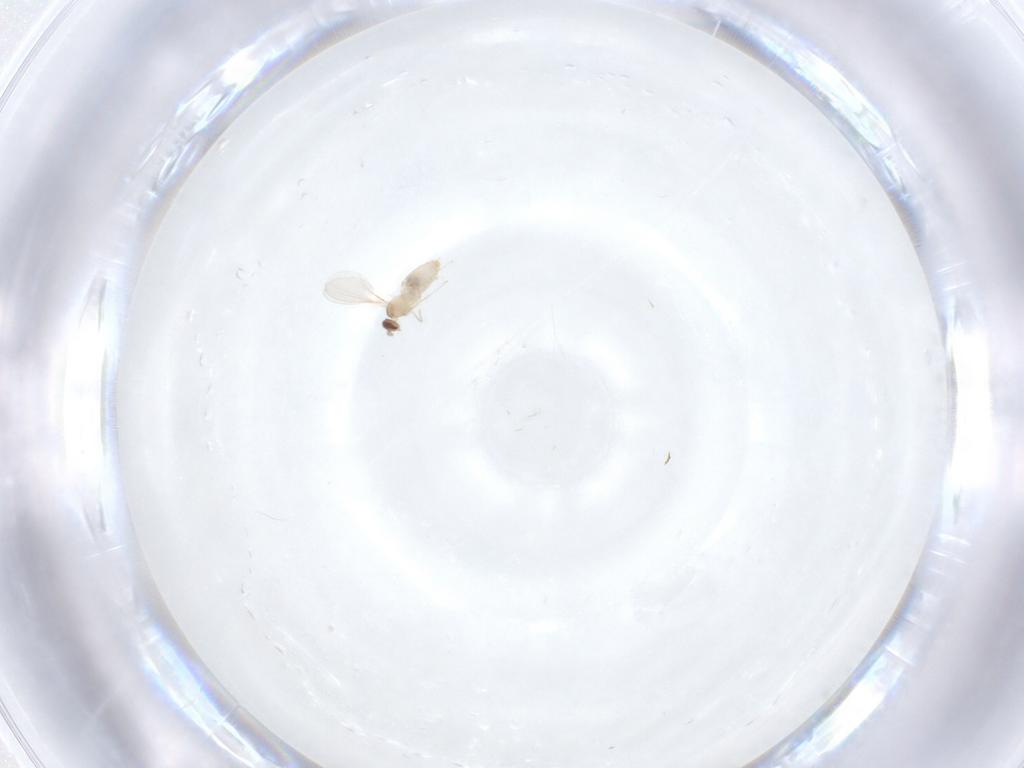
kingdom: Animalia
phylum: Arthropoda
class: Insecta
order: Diptera
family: Cecidomyiidae
